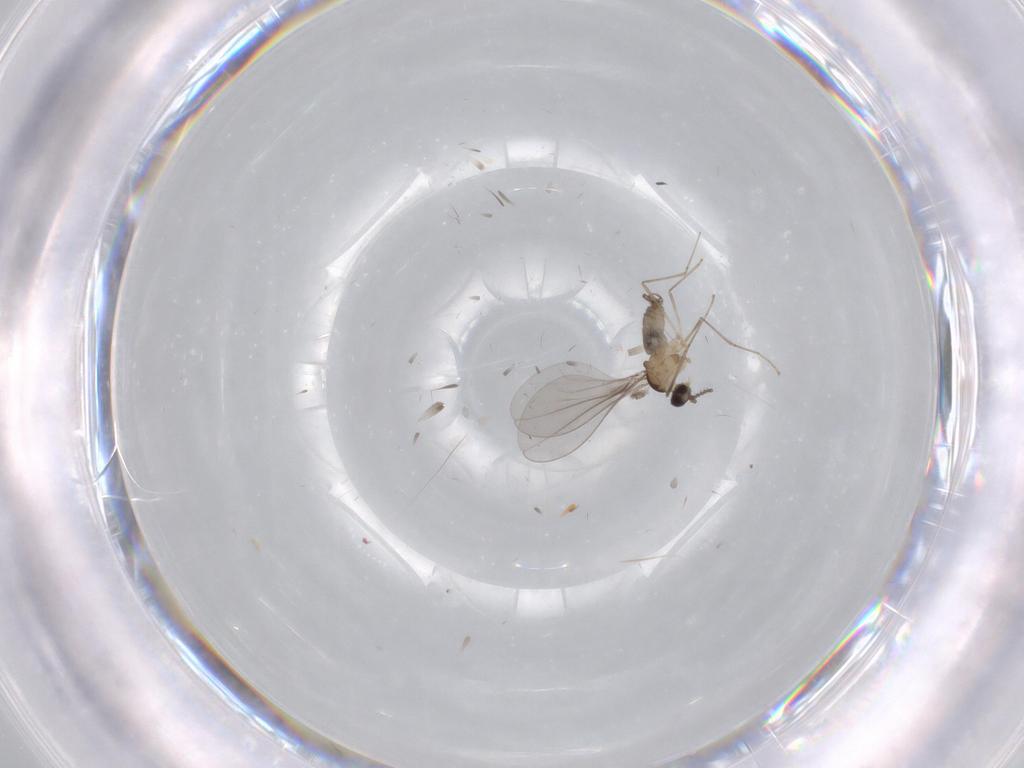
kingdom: Animalia
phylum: Arthropoda
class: Insecta
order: Diptera
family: Cecidomyiidae
